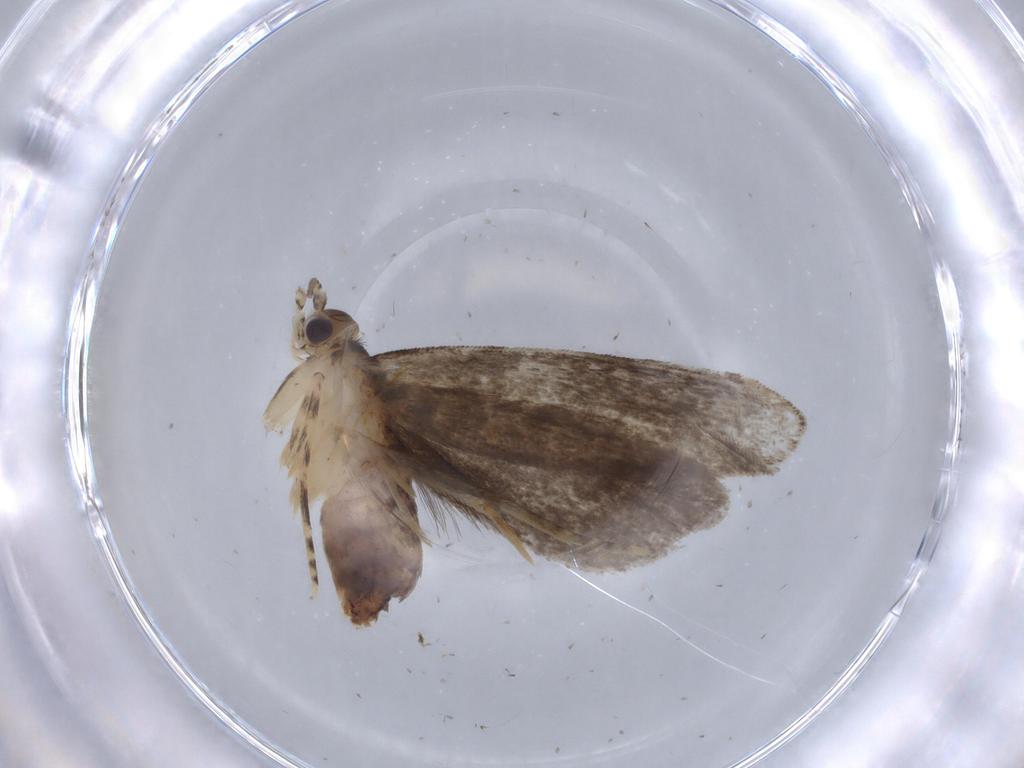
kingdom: Animalia
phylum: Arthropoda
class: Insecta
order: Lepidoptera
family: Tineidae
